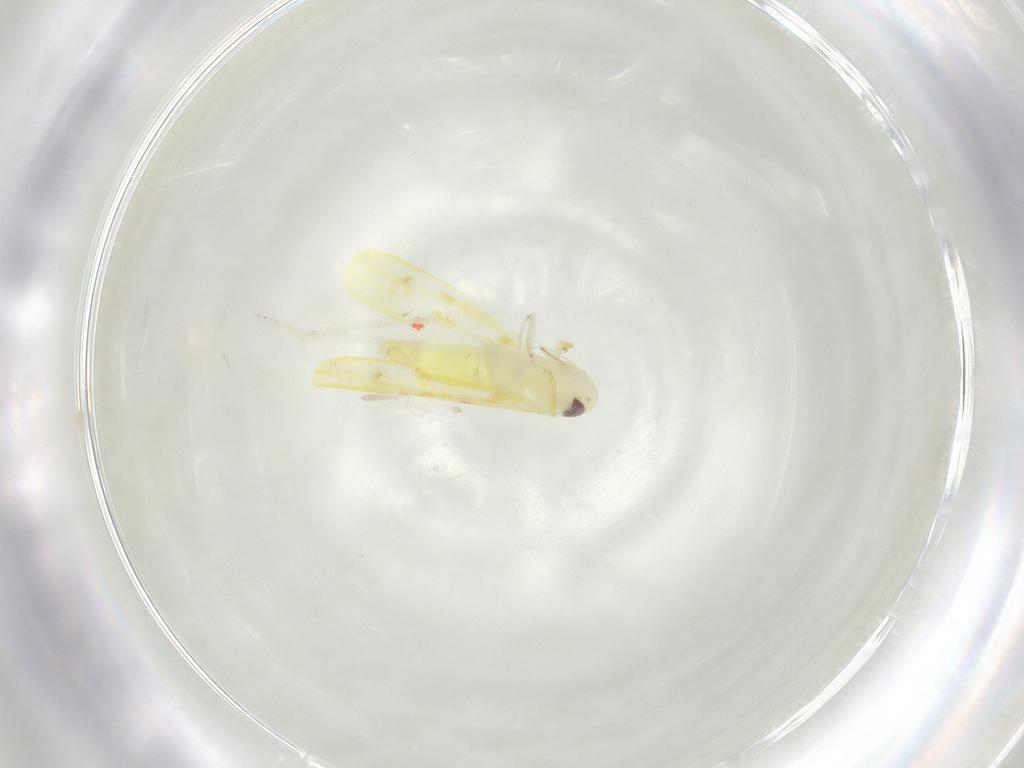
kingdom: Animalia
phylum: Arthropoda
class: Insecta
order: Hemiptera
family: Cicadellidae
